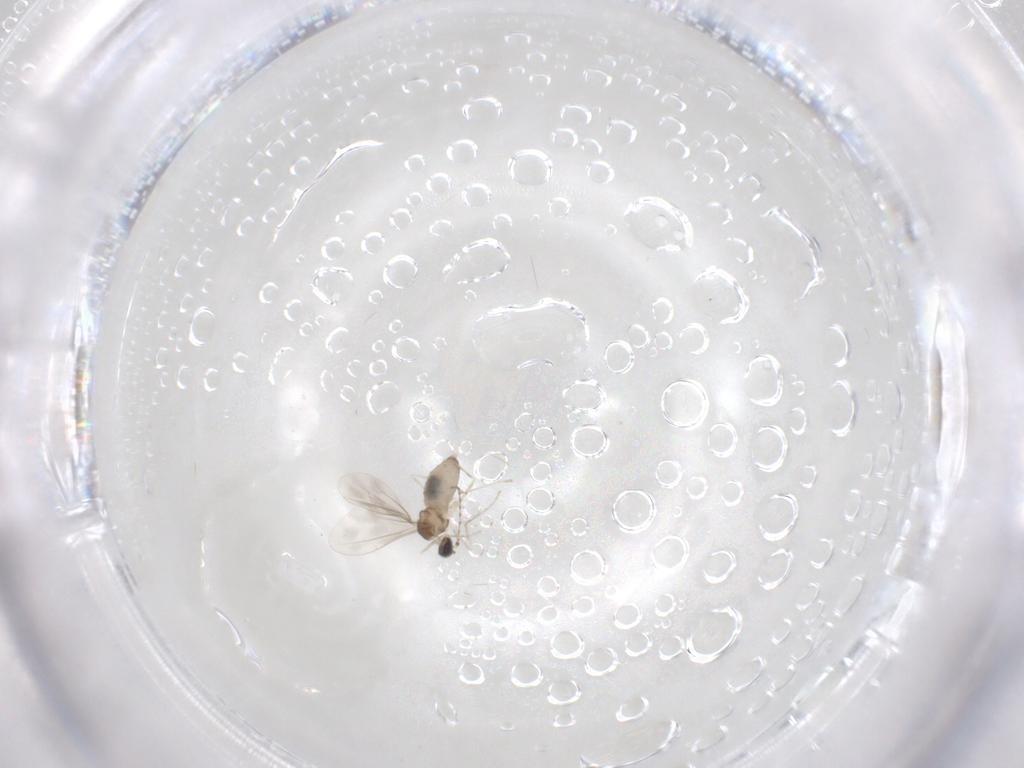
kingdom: Animalia
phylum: Arthropoda
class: Insecta
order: Diptera
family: Cecidomyiidae
